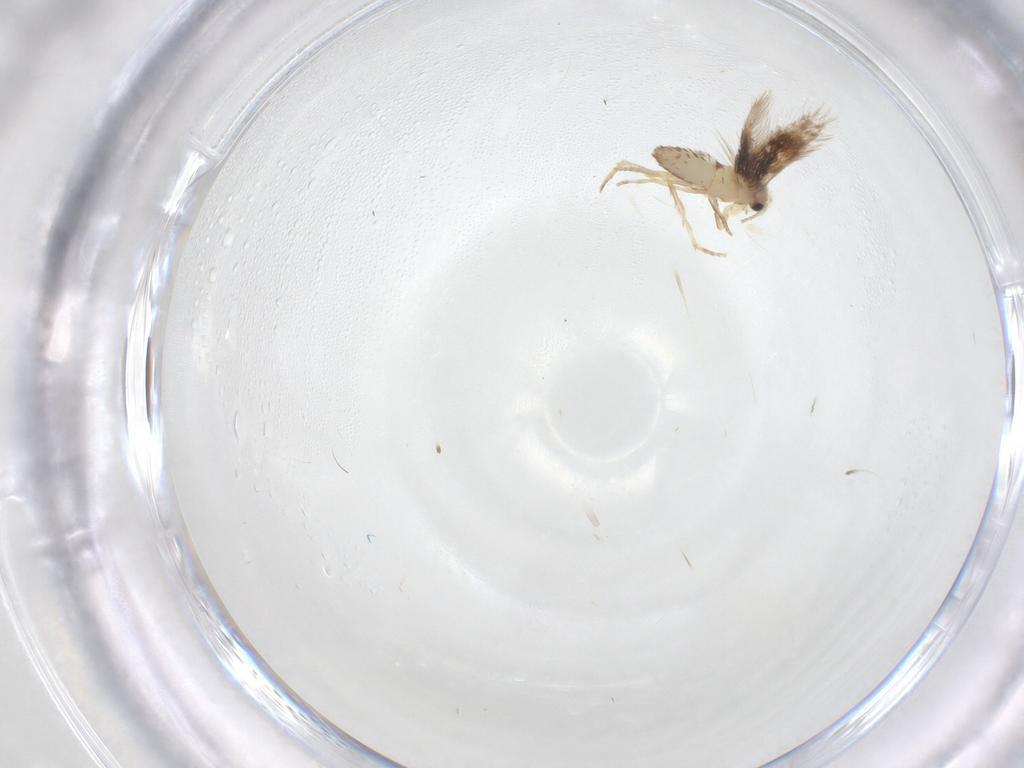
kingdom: Animalia
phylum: Arthropoda
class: Insecta
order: Lepidoptera
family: Nepticulidae
